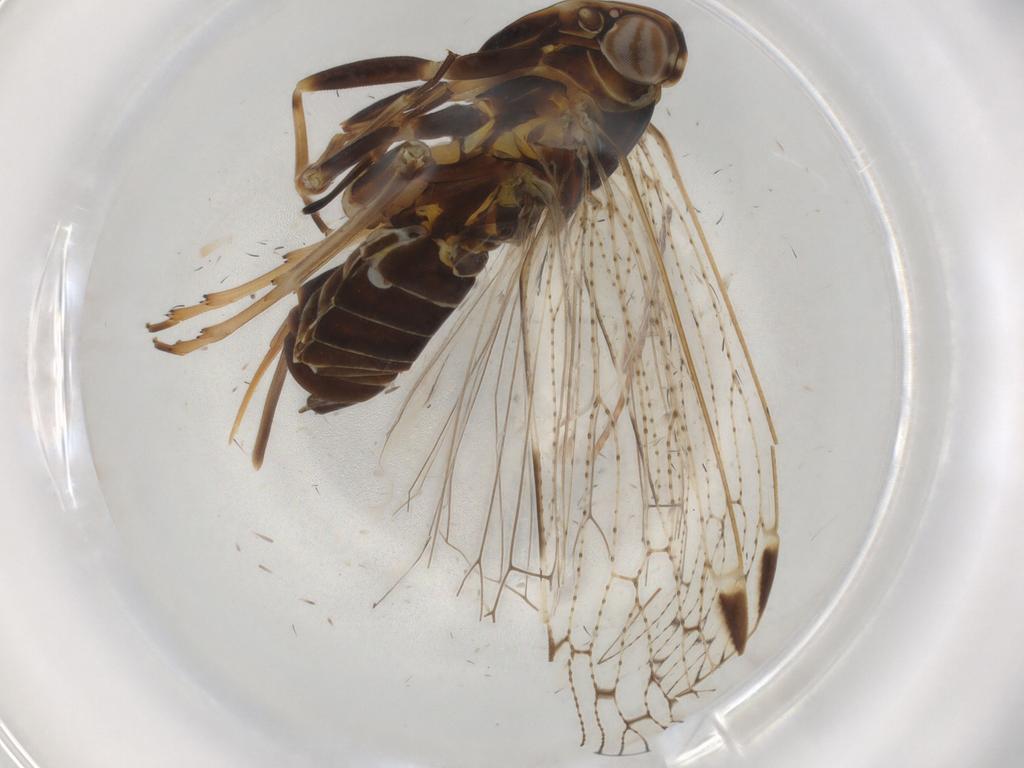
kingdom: Animalia
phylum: Arthropoda
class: Insecta
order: Hemiptera
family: Cixiidae
